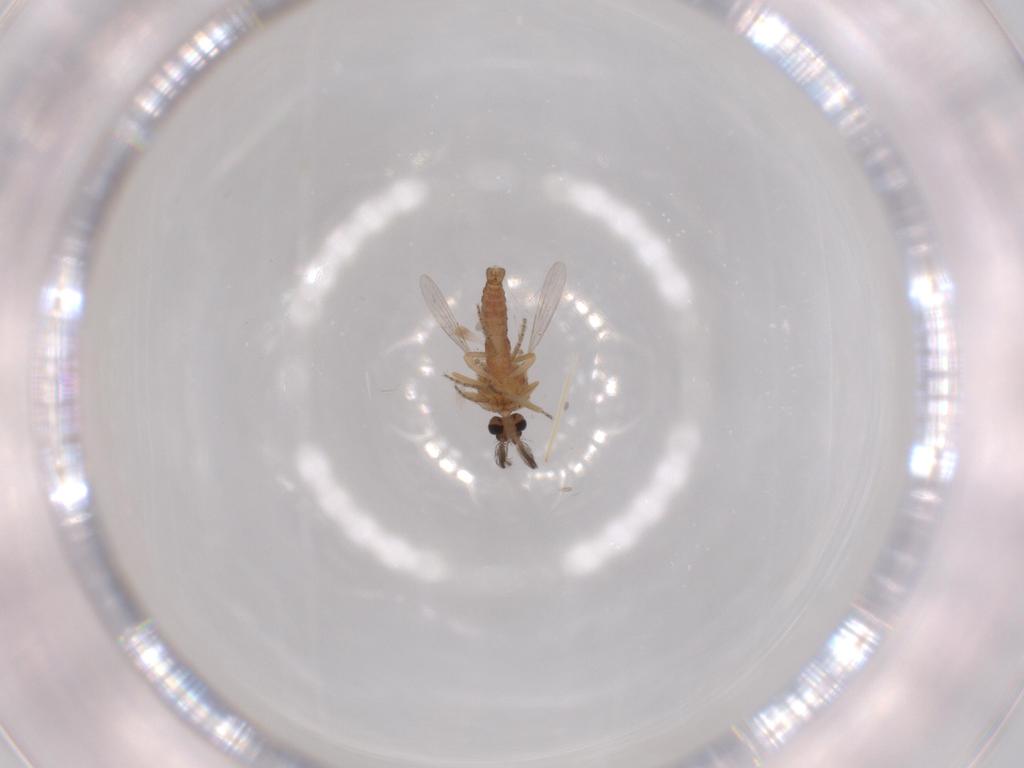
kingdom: Animalia
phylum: Arthropoda
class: Insecta
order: Diptera
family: Ceratopogonidae
